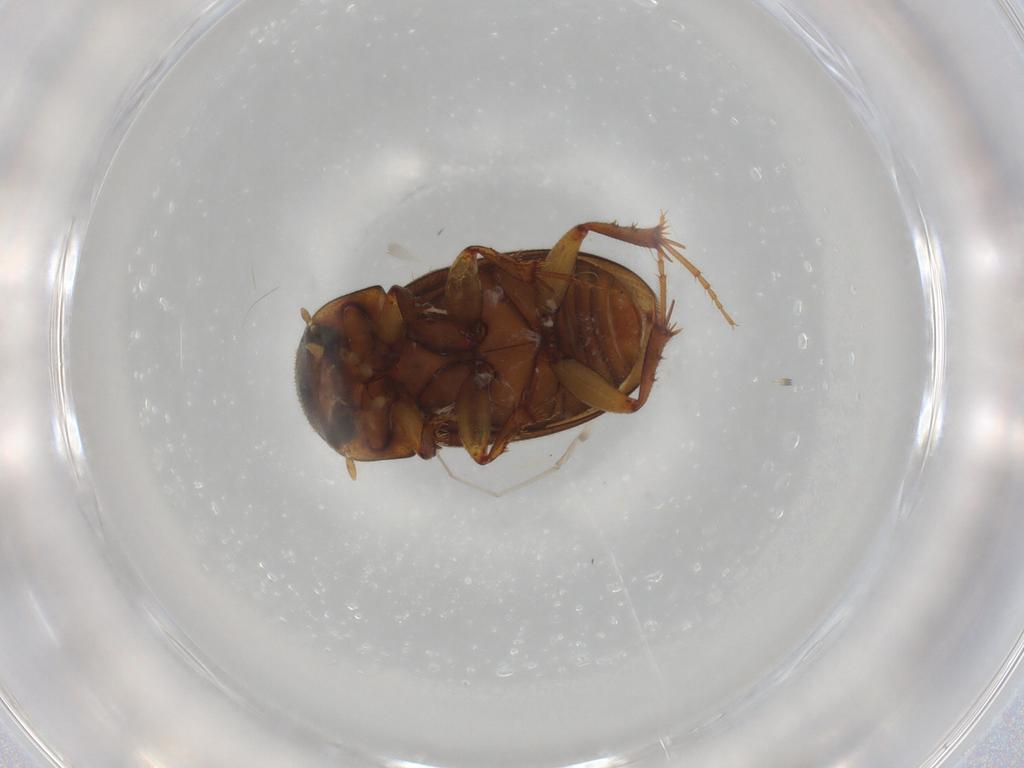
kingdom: Animalia
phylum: Arthropoda
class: Insecta
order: Coleoptera
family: Scarabaeidae
